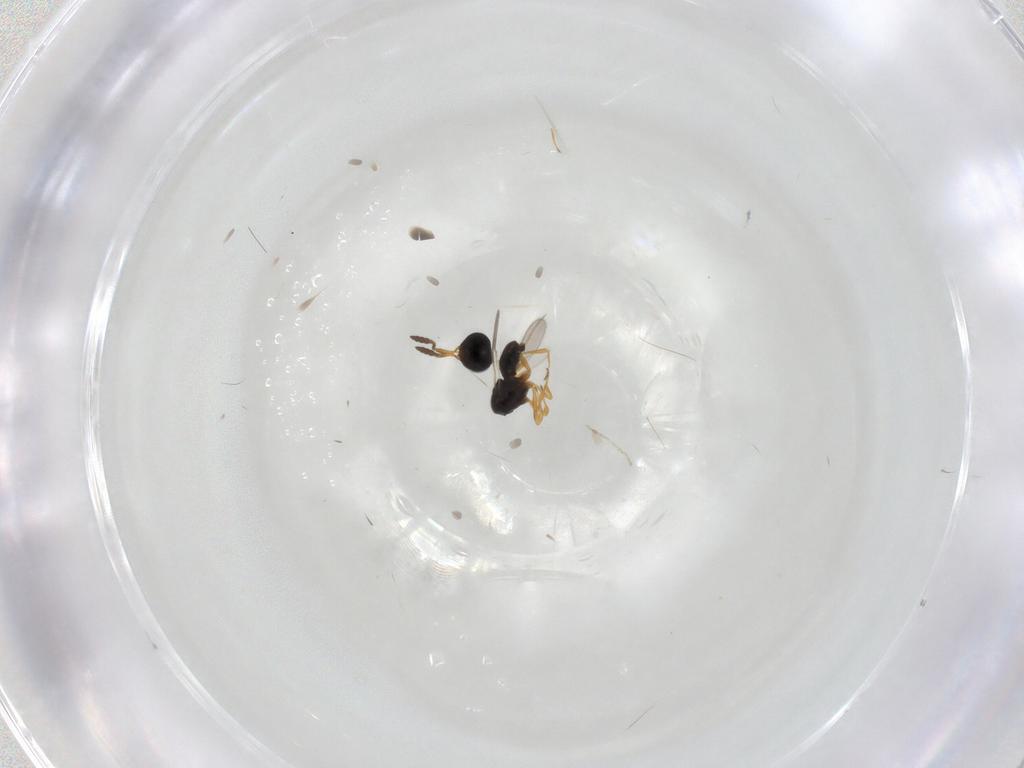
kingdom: Animalia
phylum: Arthropoda
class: Insecta
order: Hymenoptera
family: Scelionidae
